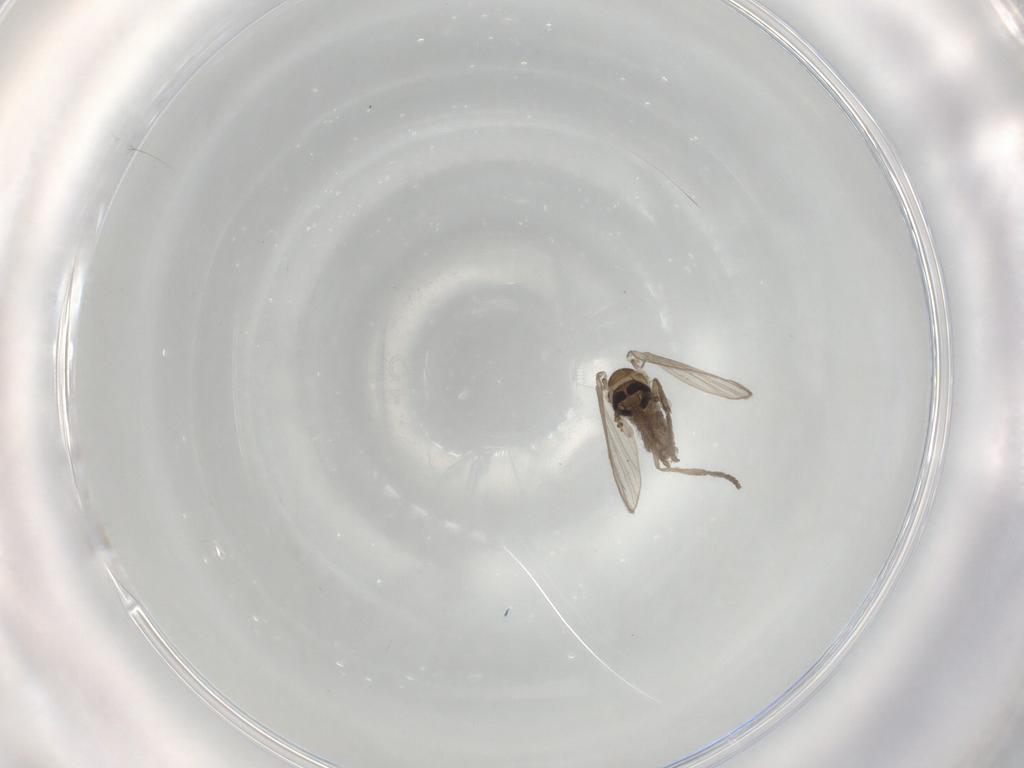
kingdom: Animalia
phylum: Arthropoda
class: Insecta
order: Diptera
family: Psychodidae
